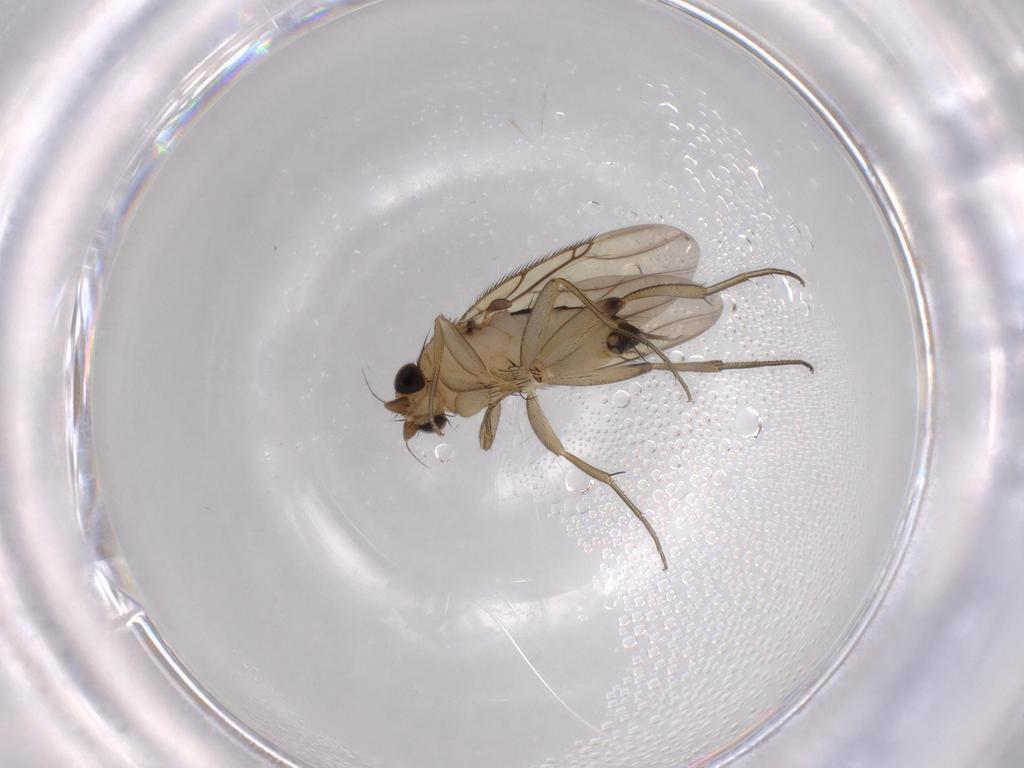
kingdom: Animalia
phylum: Arthropoda
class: Insecta
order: Diptera
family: Phoridae
